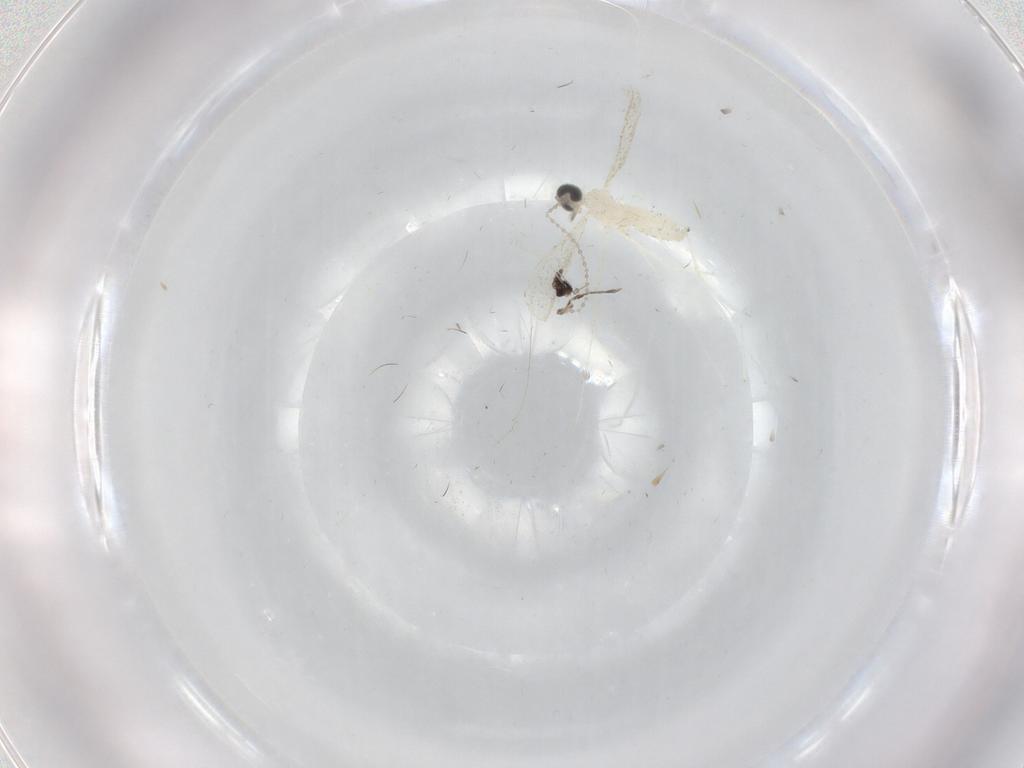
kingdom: Animalia
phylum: Arthropoda
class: Insecta
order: Diptera
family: Cecidomyiidae
